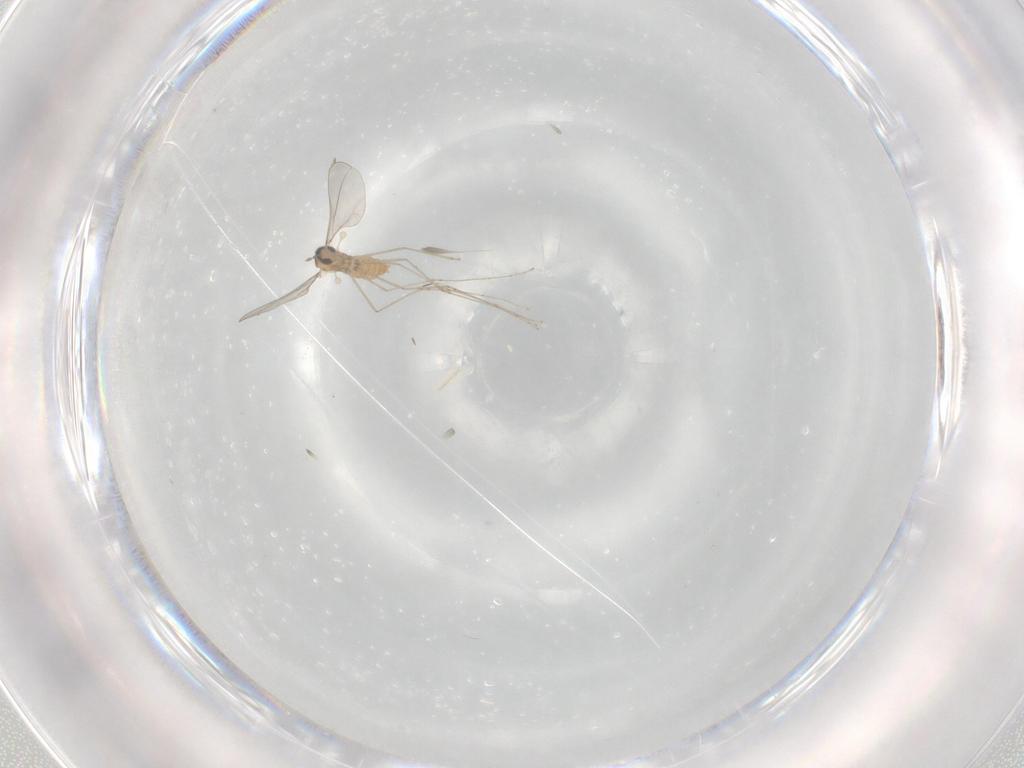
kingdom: Animalia
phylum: Arthropoda
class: Insecta
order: Diptera
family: Cecidomyiidae
